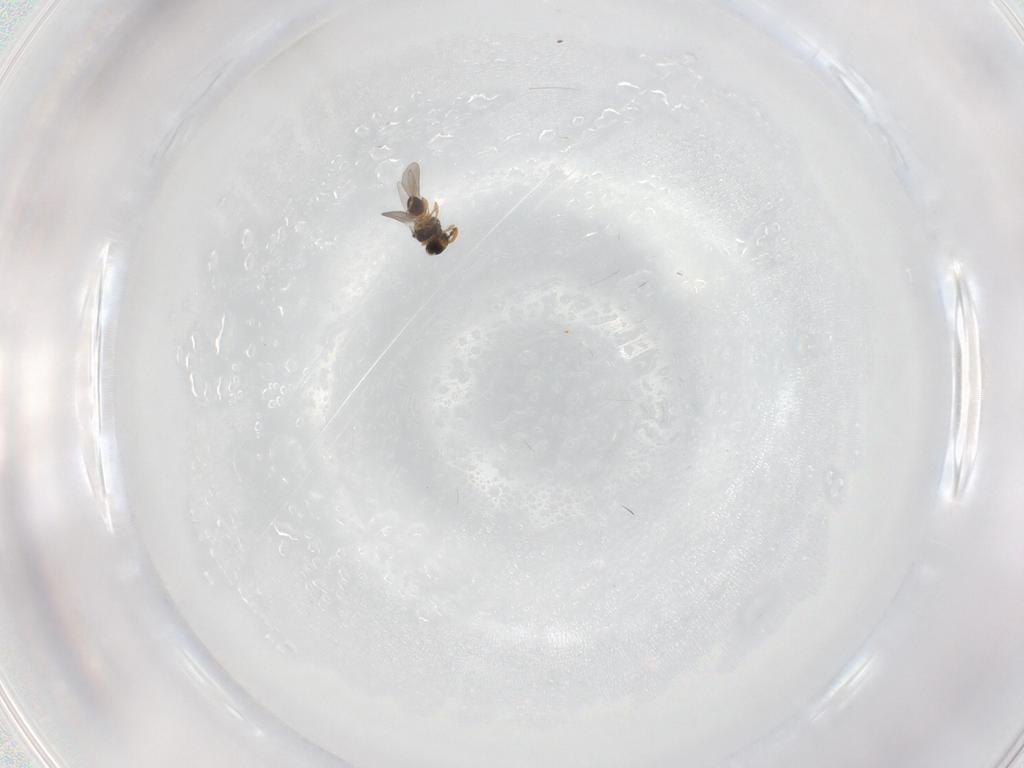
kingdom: Animalia
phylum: Arthropoda
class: Insecta
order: Hymenoptera
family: Platygastridae
